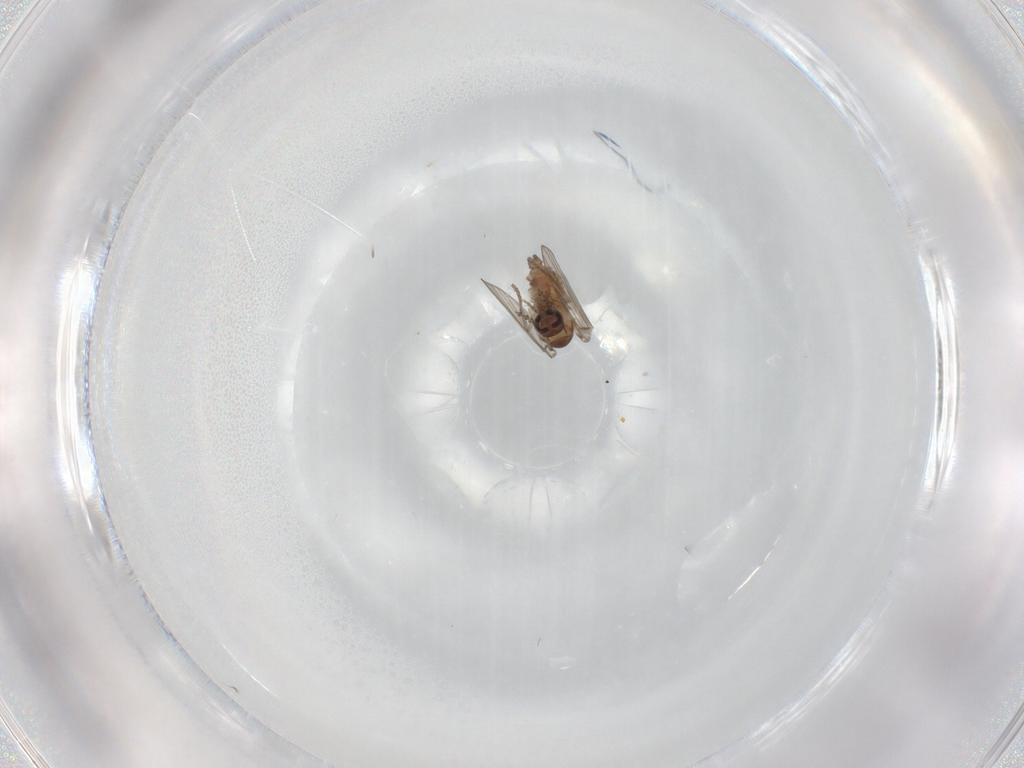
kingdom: Animalia
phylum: Arthropoda
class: Insecta
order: Diptera
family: Psychodidae
